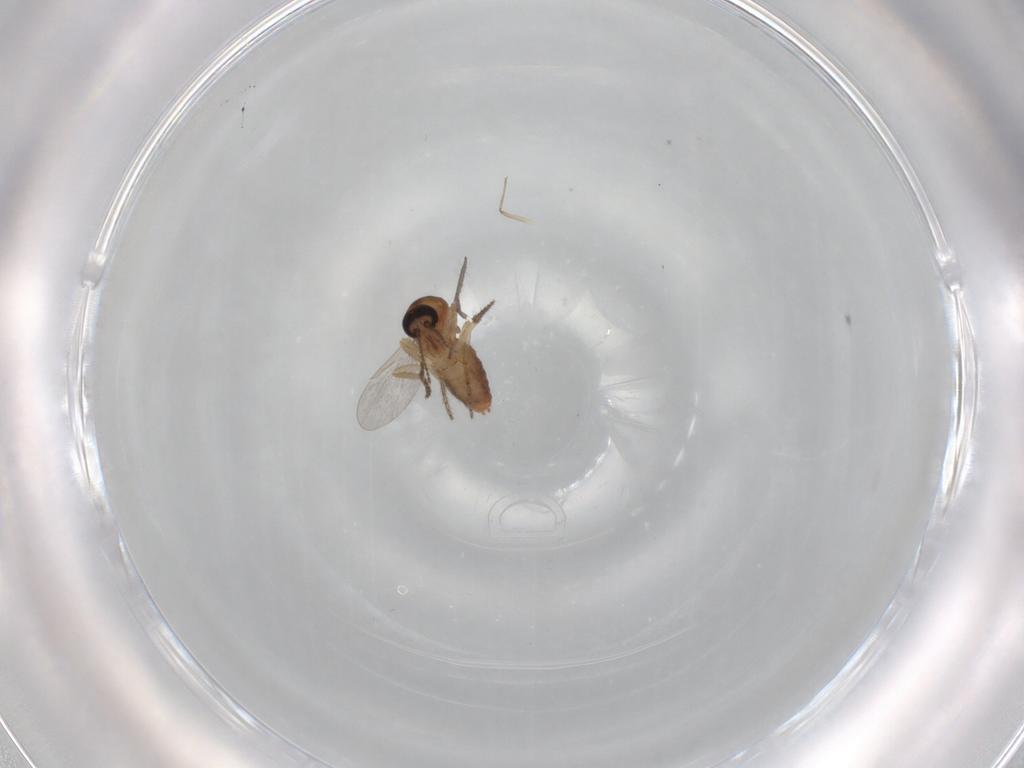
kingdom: Animalia
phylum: Arthropoda
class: Insecta
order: Diptera
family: Ceratopogonidae
